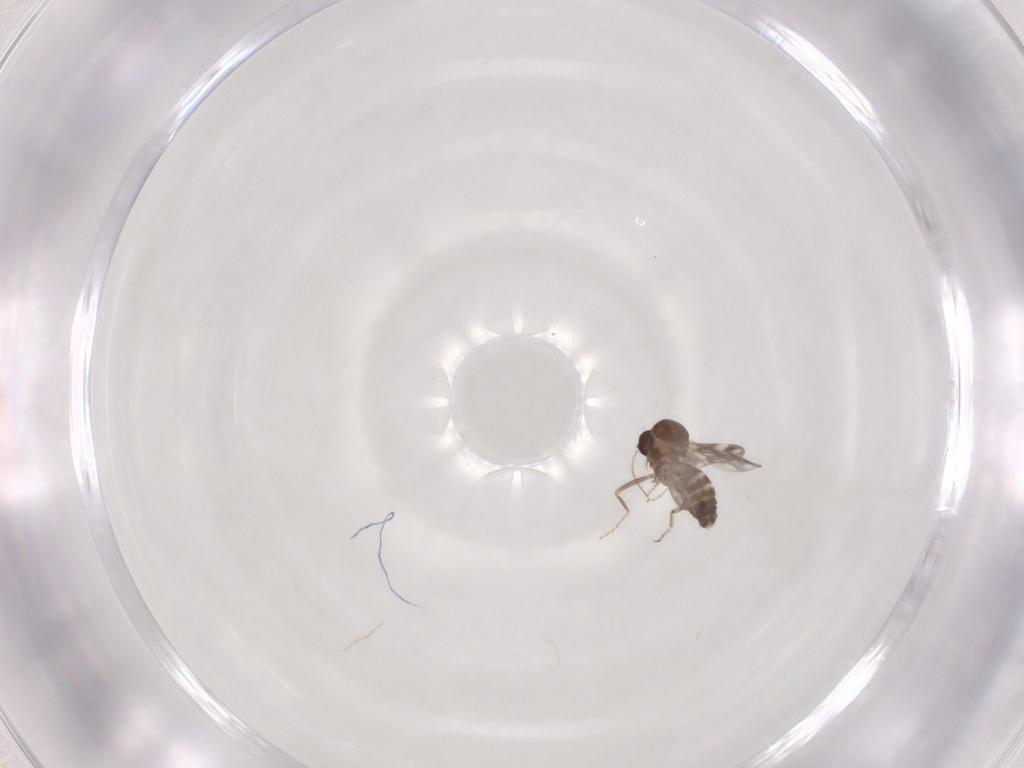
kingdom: Animalia
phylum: Arthropoda
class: Insecta
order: Diptera
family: Ceratopogonidae
